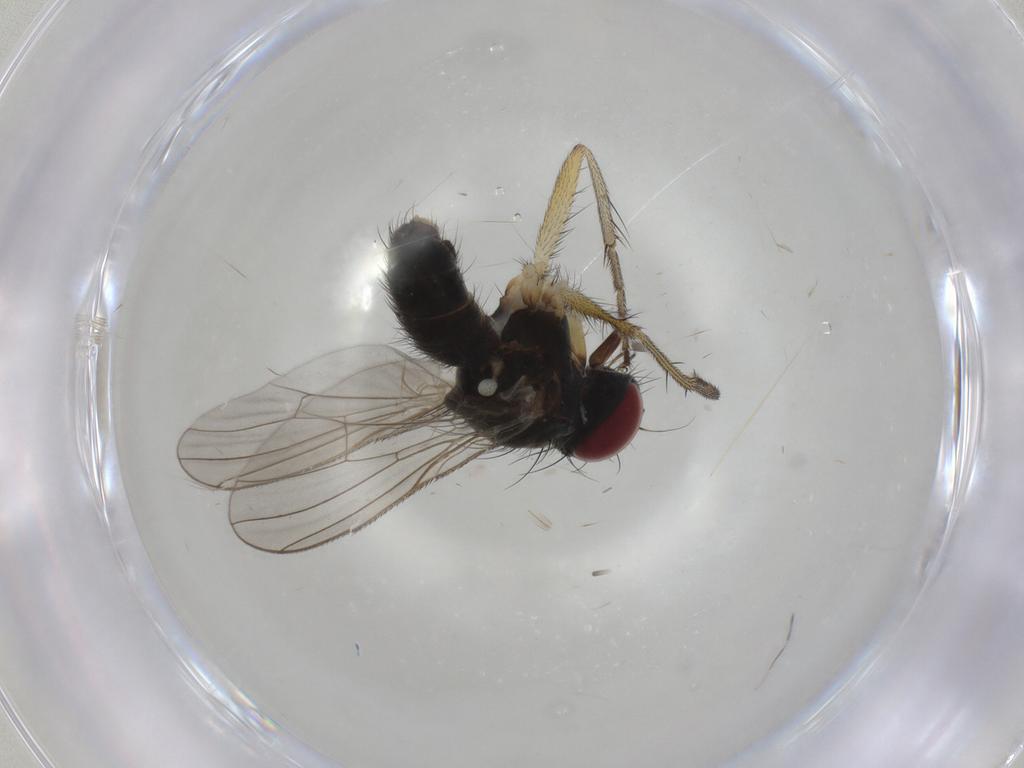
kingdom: Animalia
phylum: Arthropoda
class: Insecta
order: Diptera
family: Muscidae
